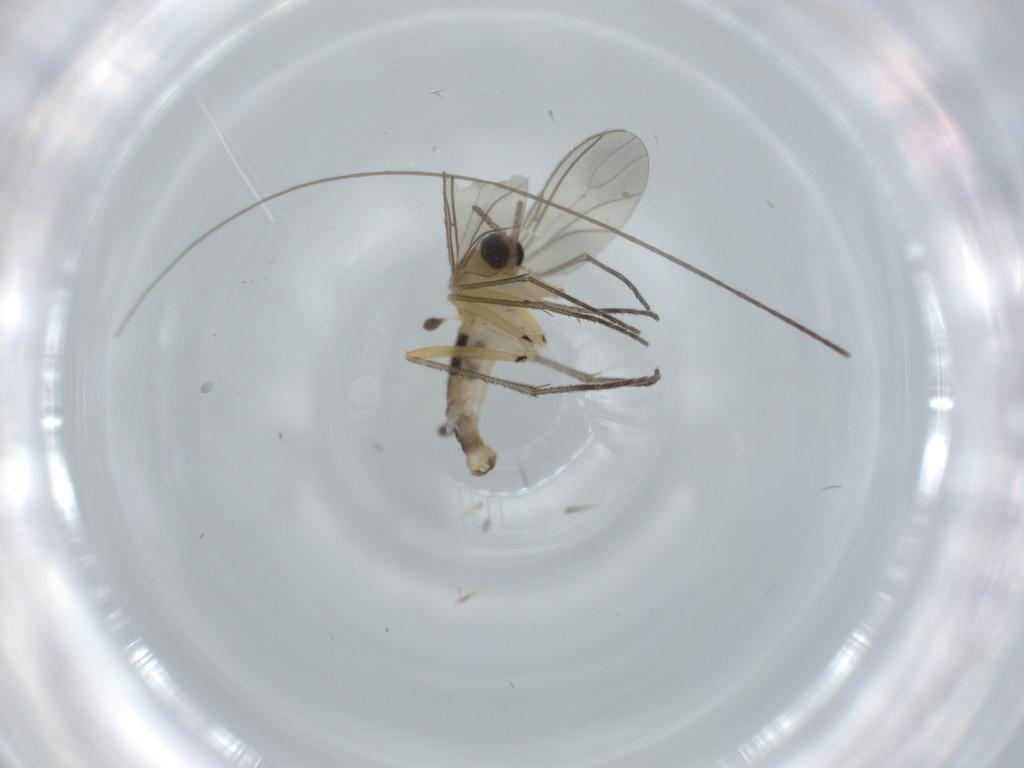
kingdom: Animalia
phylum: Arthropoda
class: Insecta
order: Diptera
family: Sciaridae
